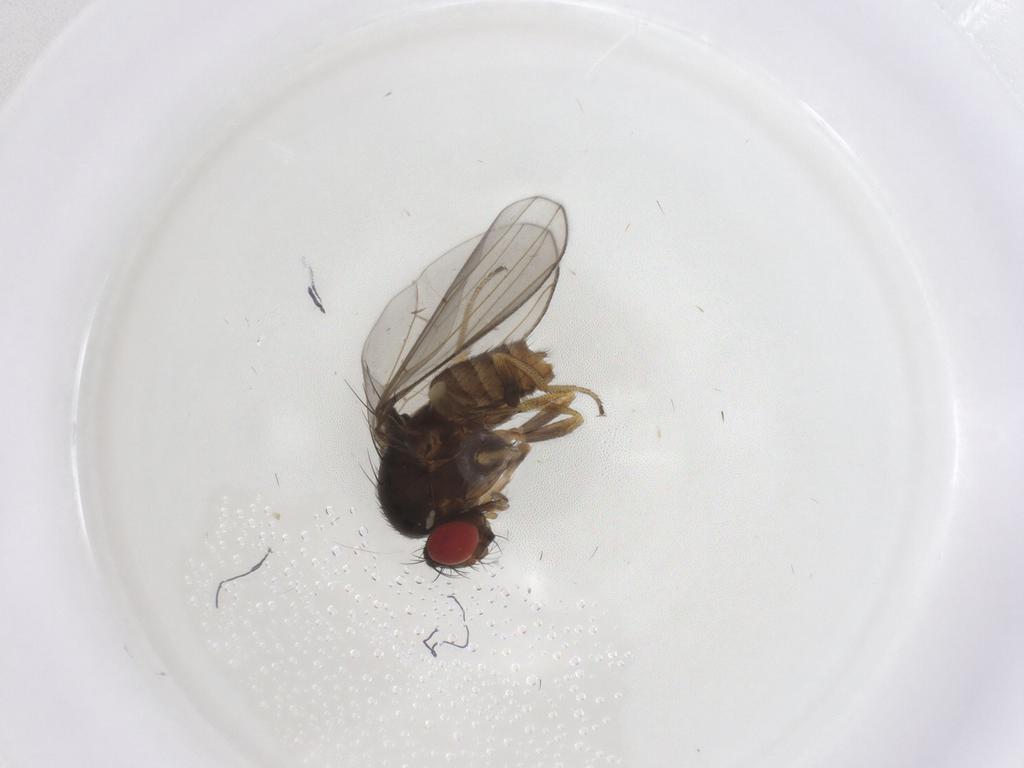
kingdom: Animalia
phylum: Arthropoda
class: Insecta
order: Diptera
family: Drosophilidae
